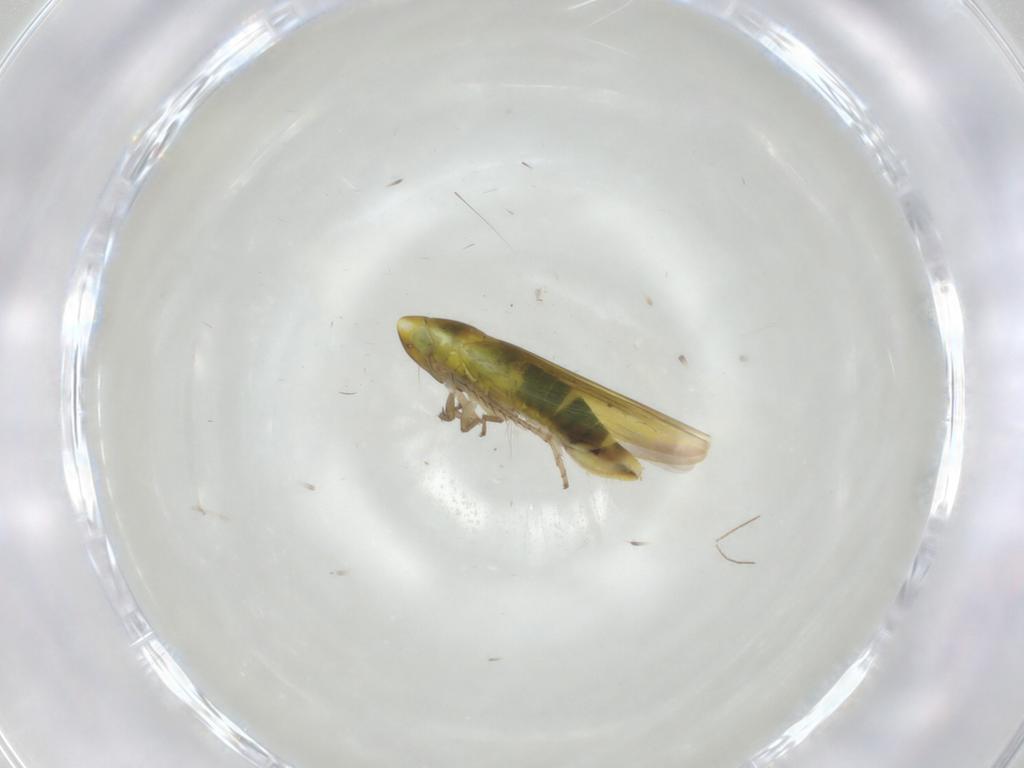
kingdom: Animalia
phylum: Arthropoda
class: Insecta
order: Hemiptera
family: Cicadellidae
